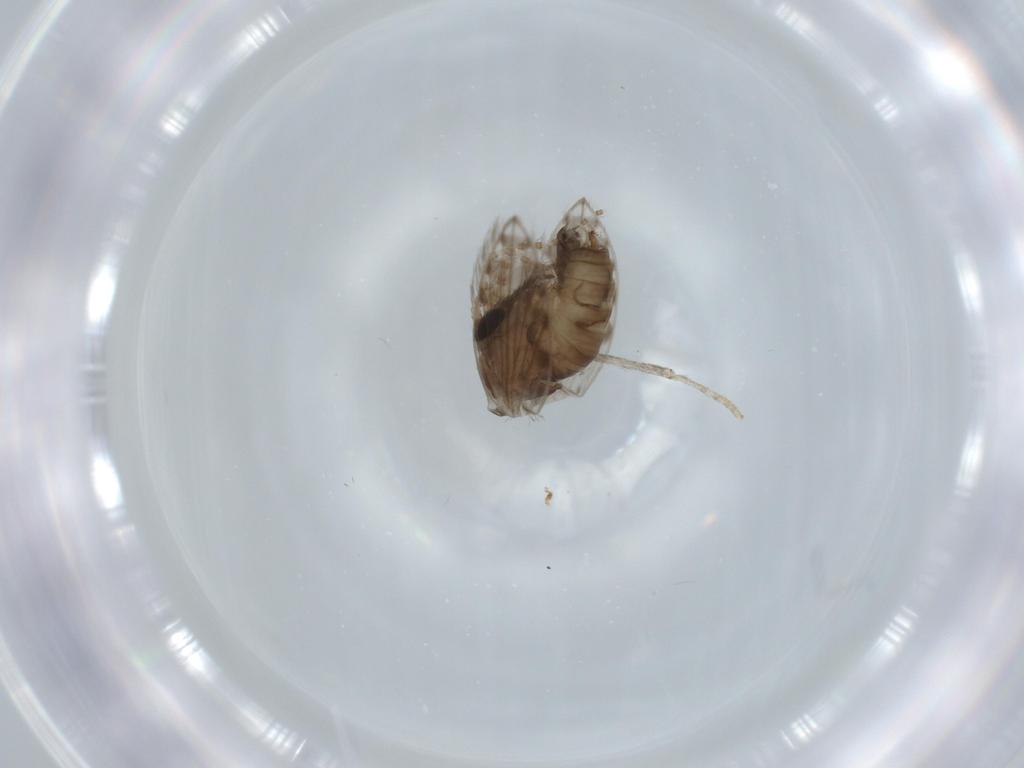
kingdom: Animalia
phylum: Arthropoda
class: Insecta
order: Diptera
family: Psychodidae
